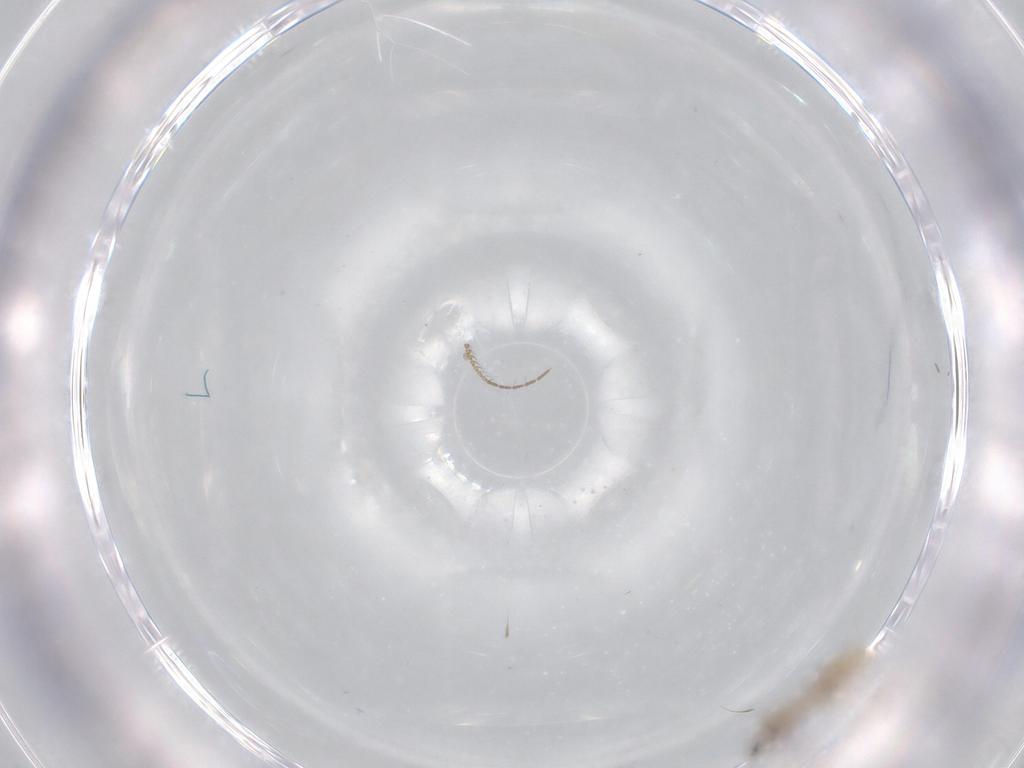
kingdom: Animalia
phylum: Arthropoda
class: Insecta
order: Diptera
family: Cecidomyiidae
